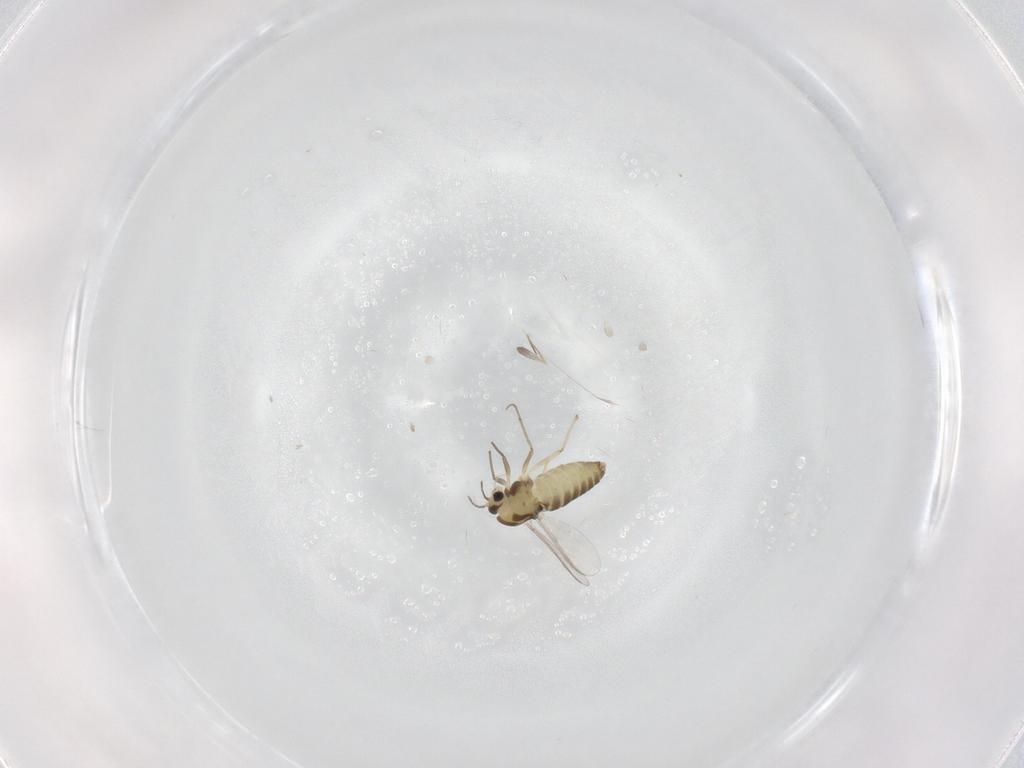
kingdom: Animalia
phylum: Arthropoda
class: Insecta
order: Diptera
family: Chironomidae
